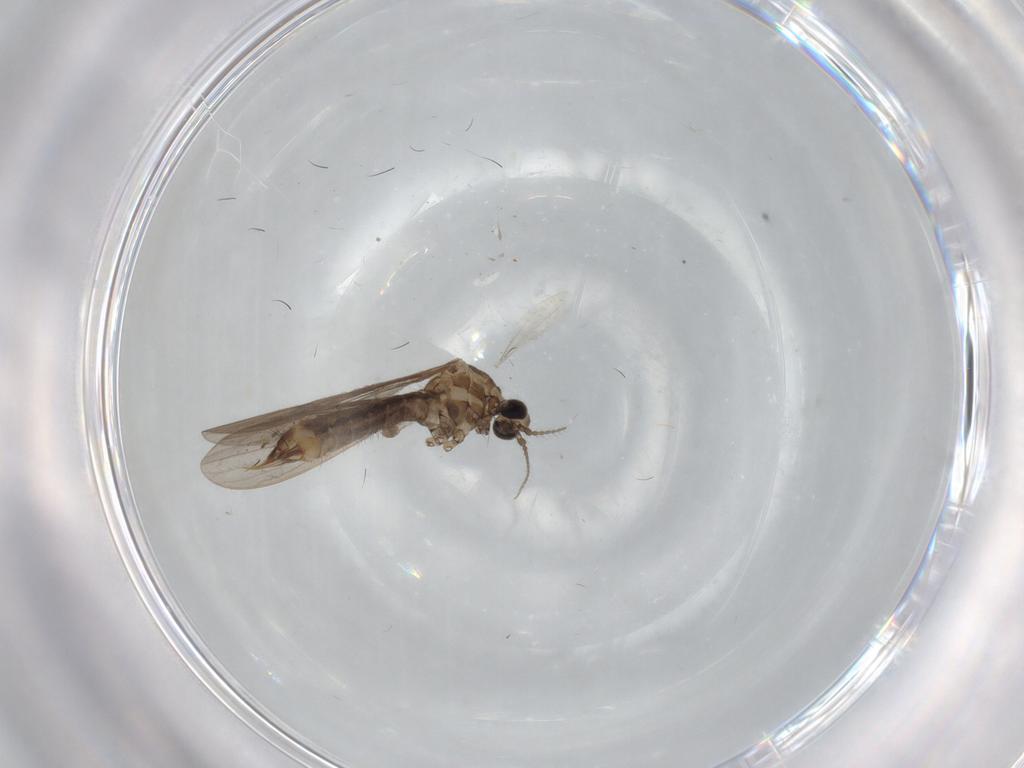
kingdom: Animalia
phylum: Arthropoda
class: Insecta
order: Diptera
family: Limoniidae
